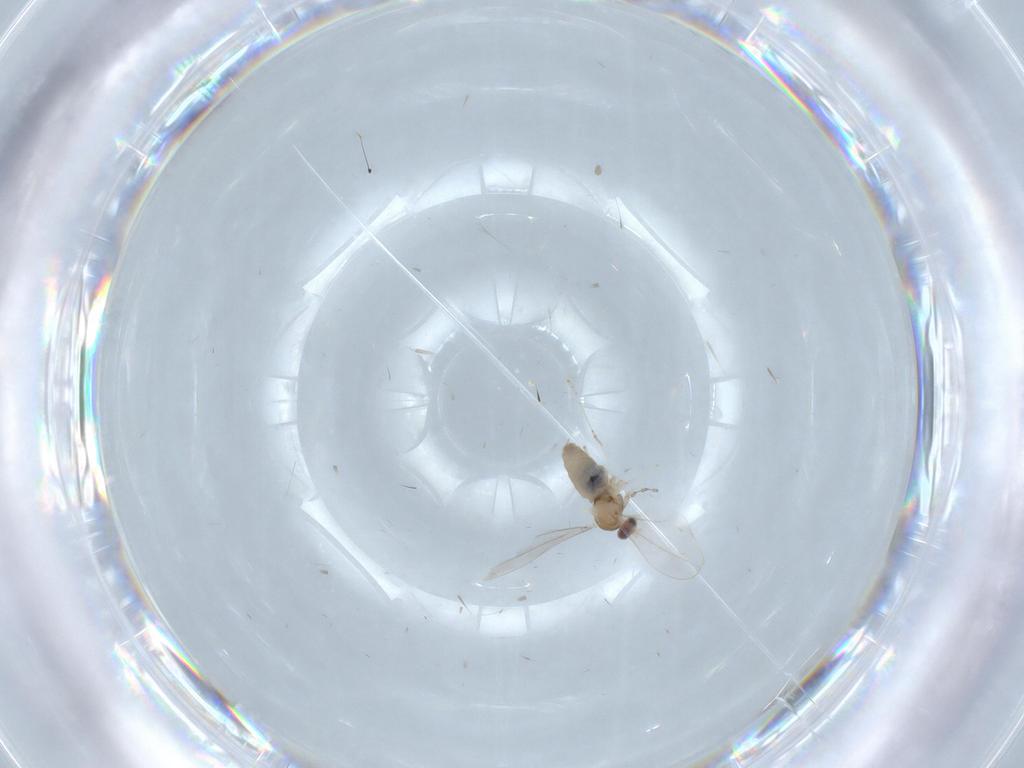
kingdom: Animalia
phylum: Arthropoda
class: Insecta
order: Diptera
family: Cecidomyiidae
